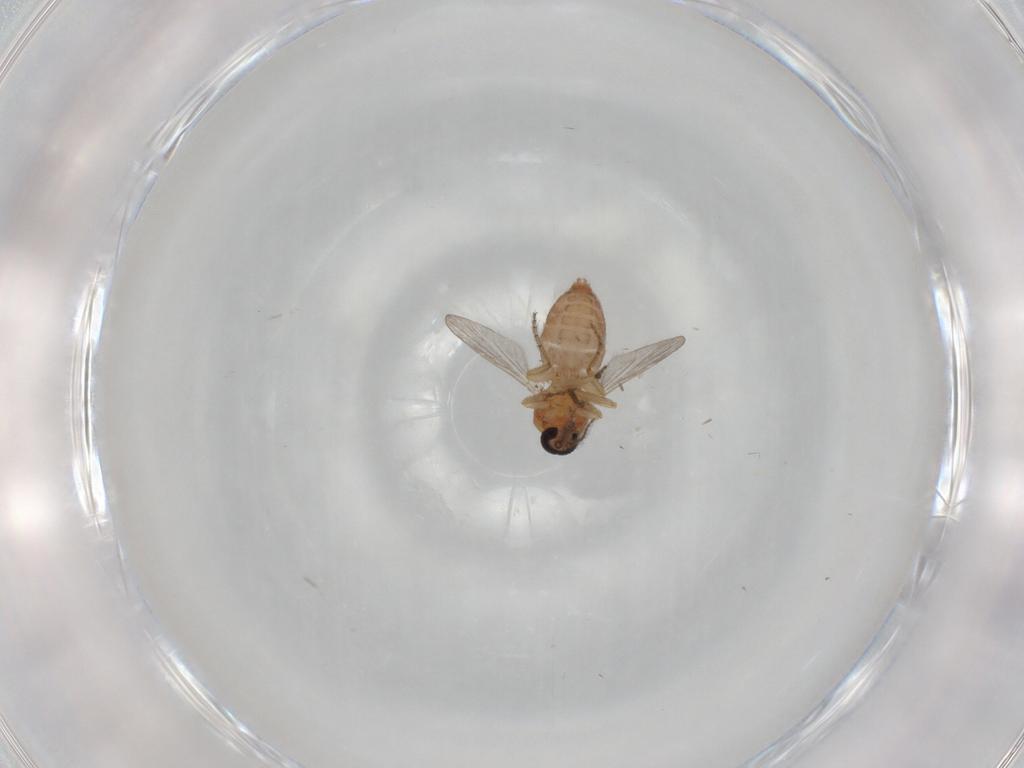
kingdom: Animalia
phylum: Arthropoda
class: Insecta
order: Diptera
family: Ceratopogonidae
